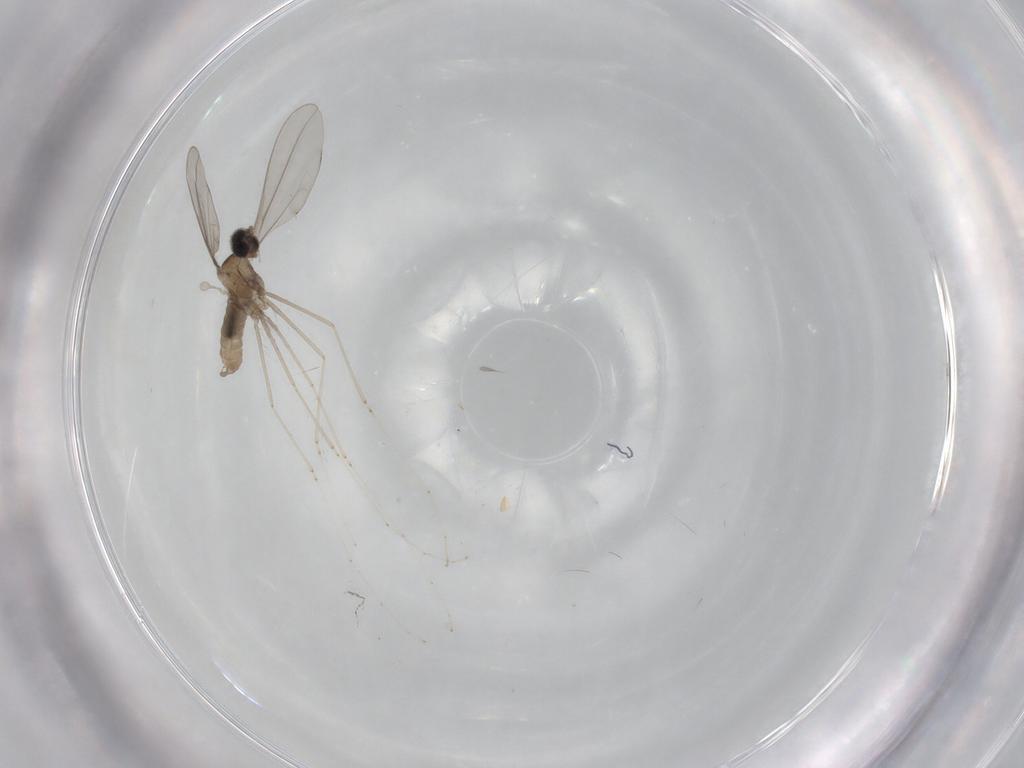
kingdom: Animalia
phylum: Arthropoda
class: Insecta
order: Diptera
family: Cecidomyiidae
